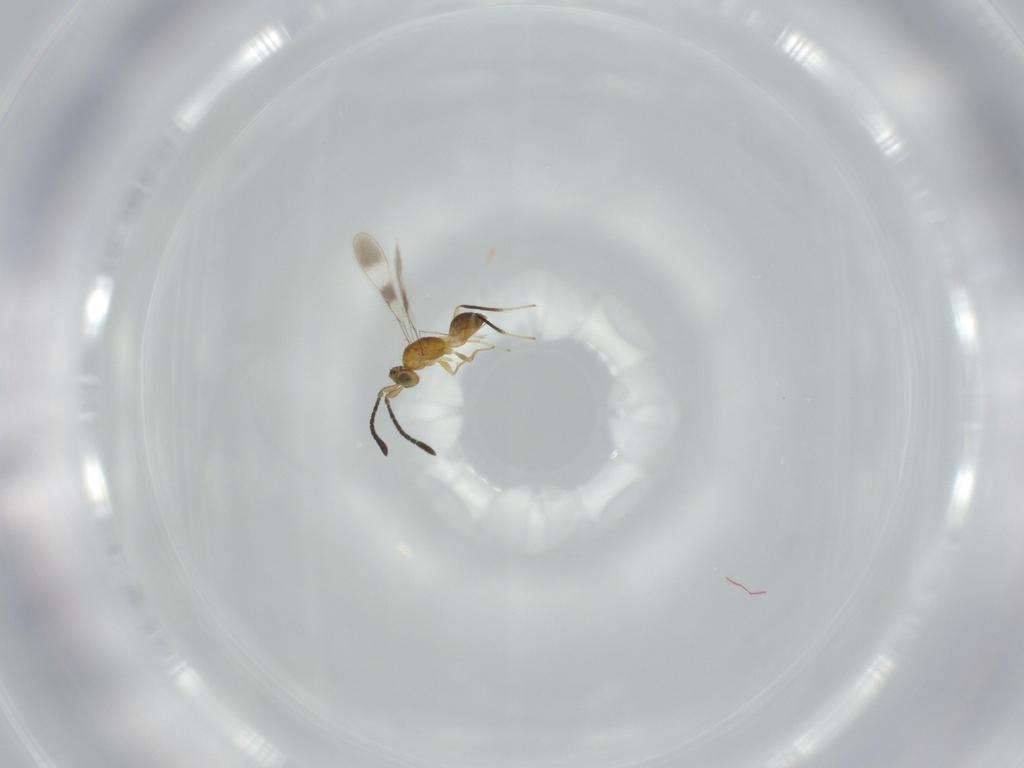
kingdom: Animalia
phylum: Arthropoda
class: Insecta
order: Hymenoptera
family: Mymaridae
